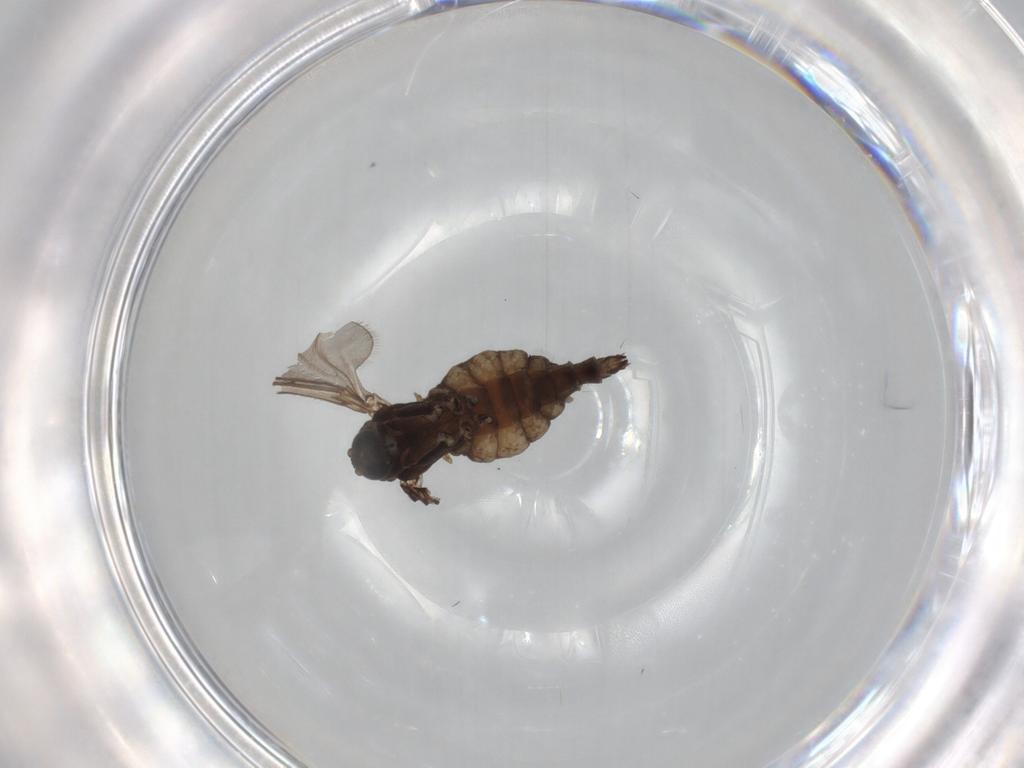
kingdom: Animalia
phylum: Arthropoda
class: Insecta
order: Diptera
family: Sciaridae
